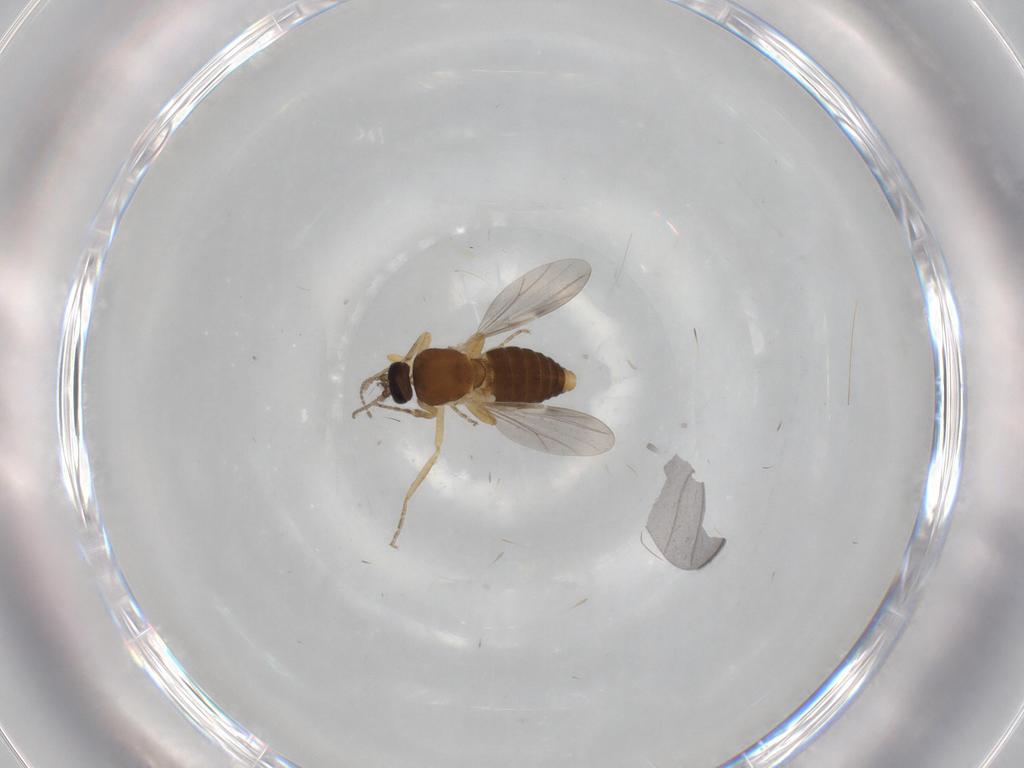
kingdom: Animalia
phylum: Arthropoda
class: Insecta
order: Diptera
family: Ceratopogonidae
